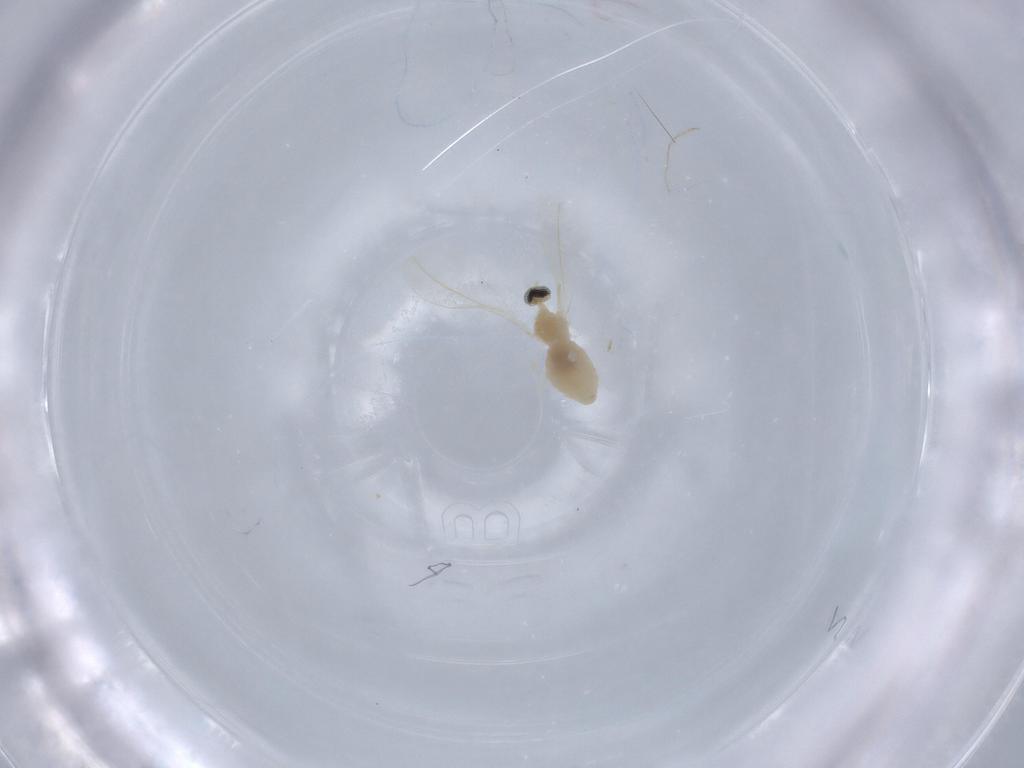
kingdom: Animalia
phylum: Arthropoda
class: Insecta
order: Diptera
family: Cecidomyiidae
